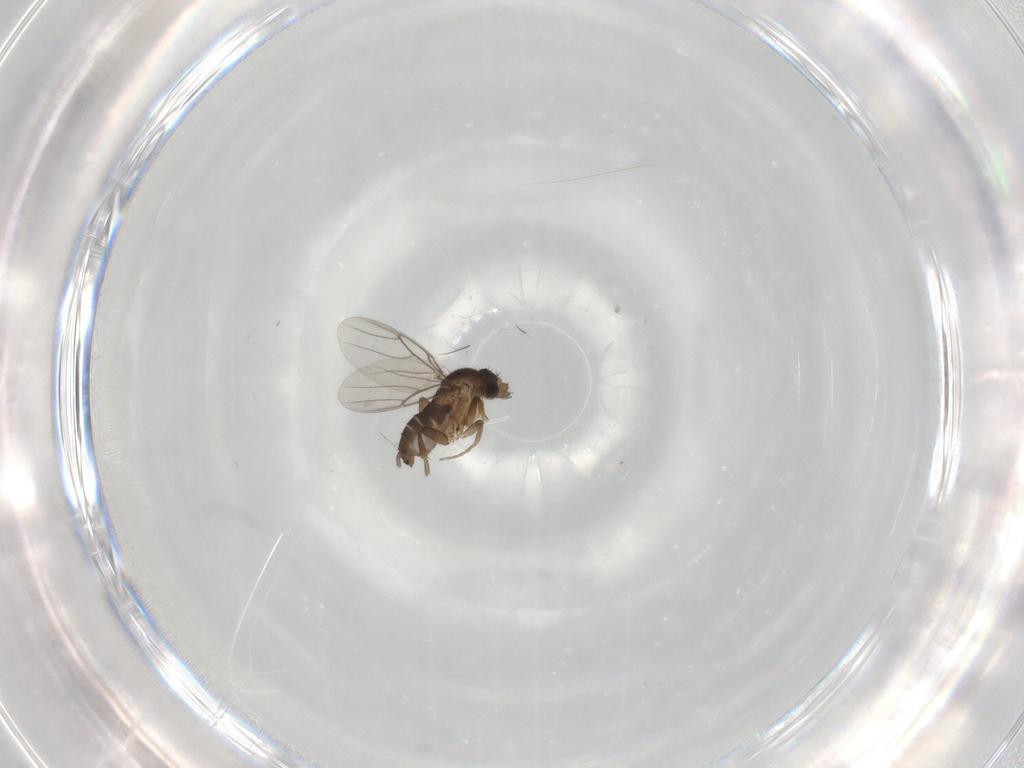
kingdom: Animalia
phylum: Arthropoda
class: Insecta
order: Diptera
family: Phoridae
